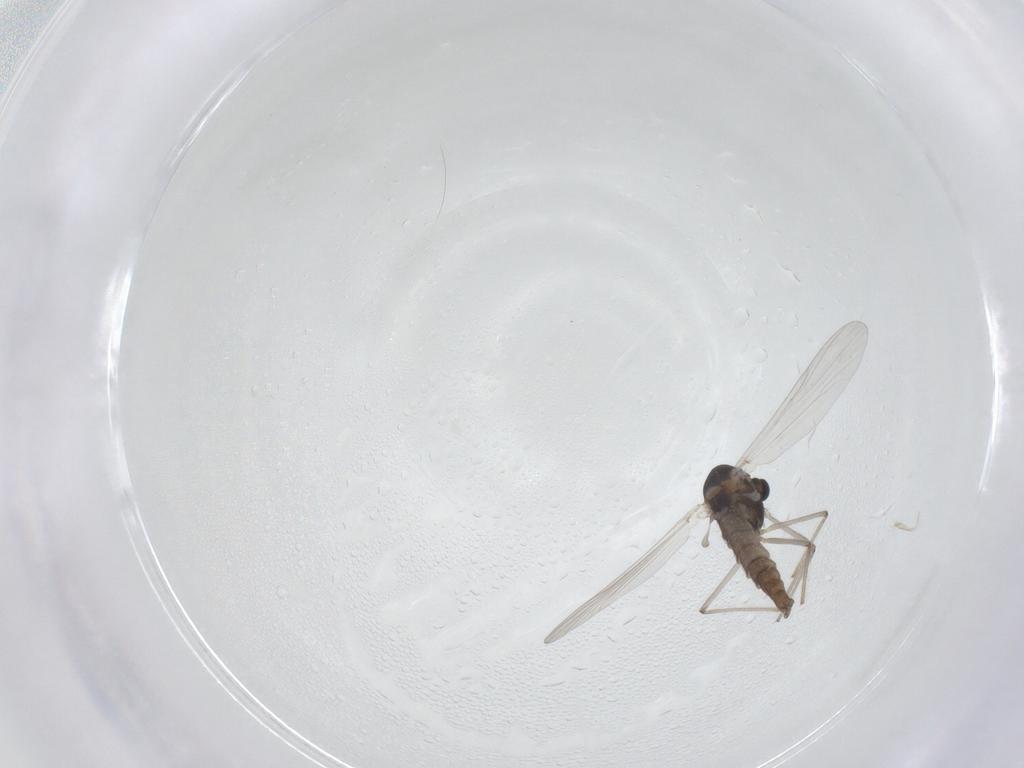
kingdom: Animalia
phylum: Arthropoda
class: Insecta
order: Diptera
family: Chironomidae
